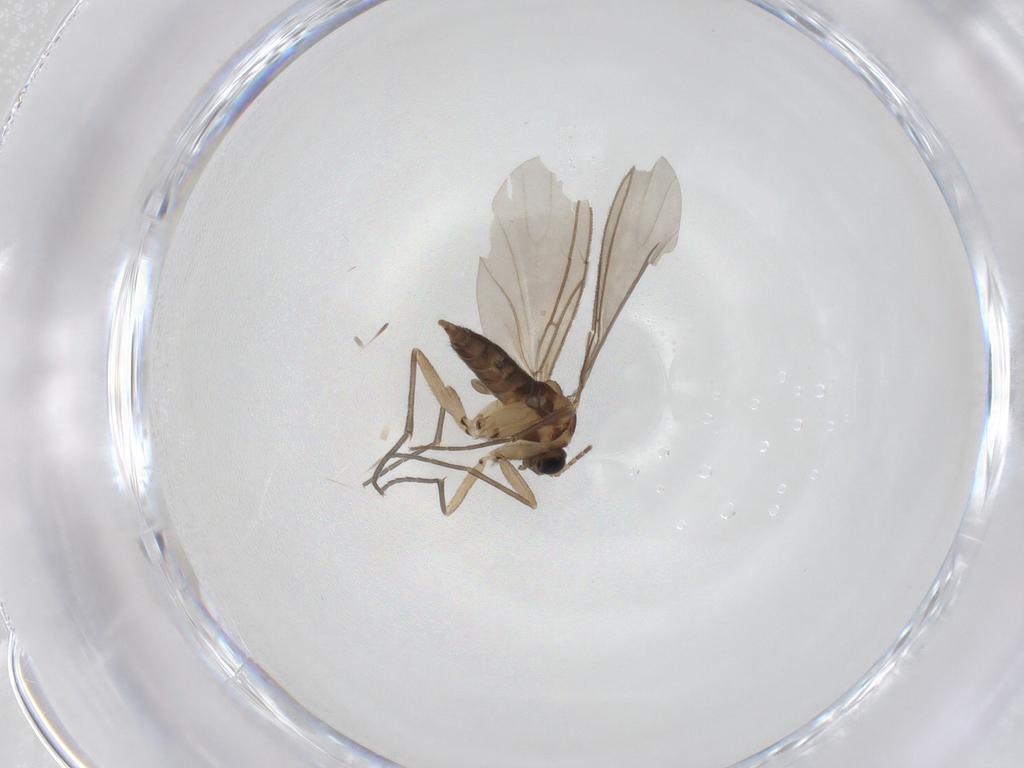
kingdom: Animalia
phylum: Arthropoda
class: Insecta
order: Diptera
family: Sciaridae
